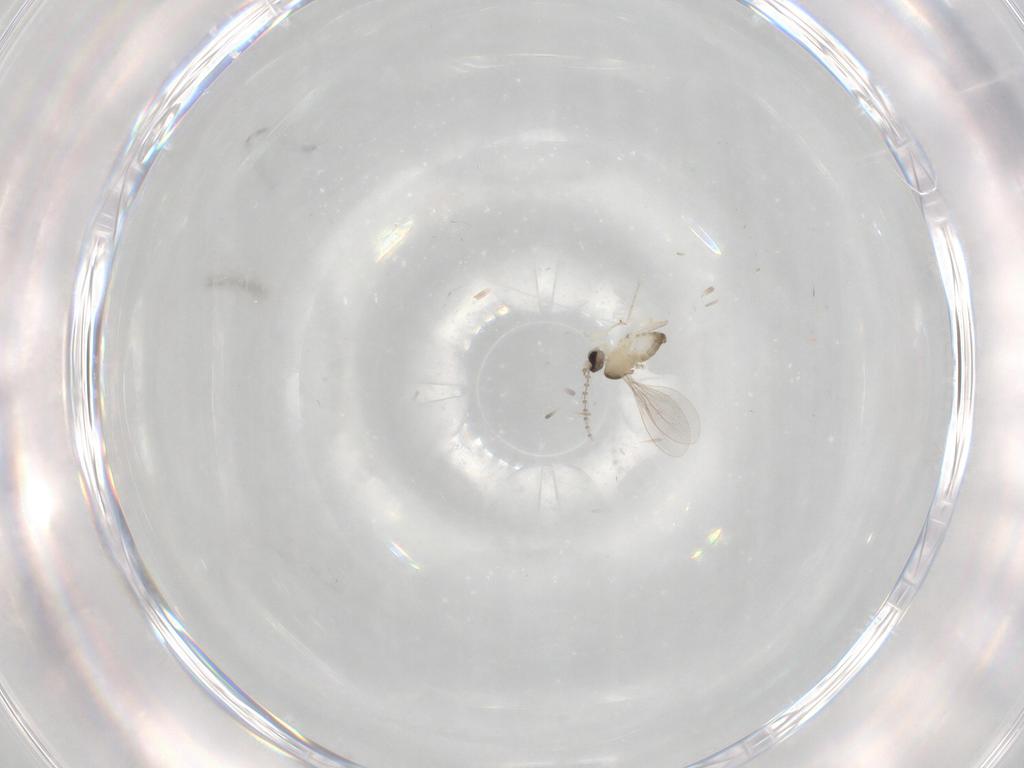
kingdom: Animalia
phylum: Arthropoda
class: Insecta
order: Diptera
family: Cecidomyiidae
